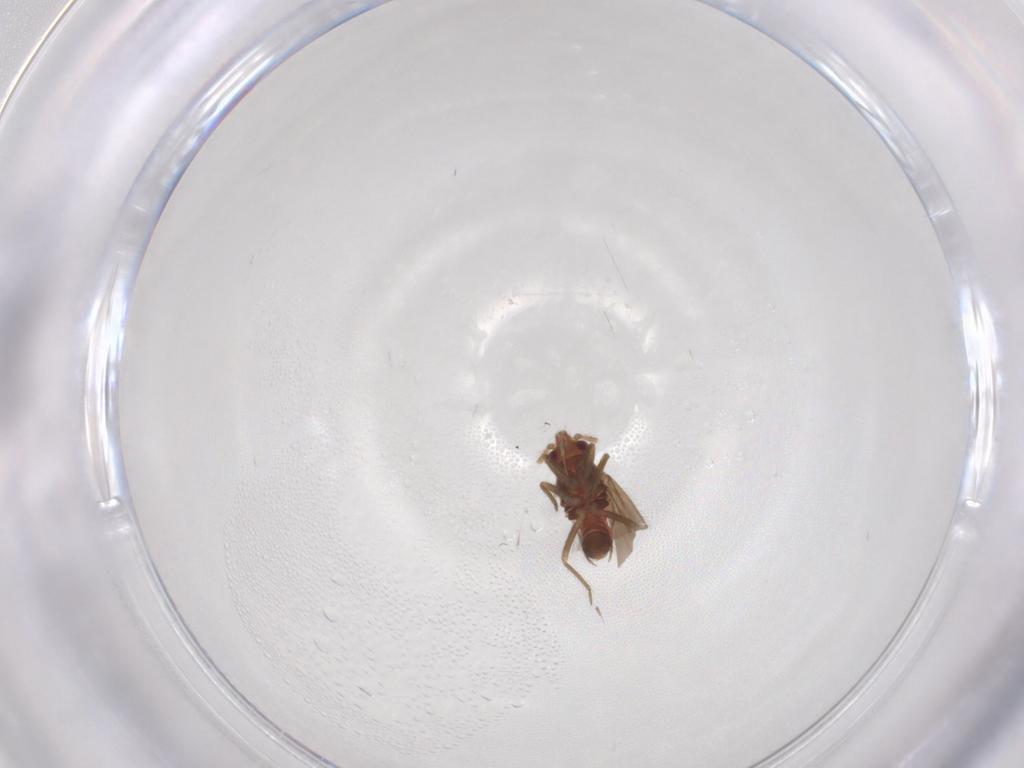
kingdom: Animalia
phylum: Arthropoda
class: Insecta
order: Hemiptera
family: Ceratocombidae
